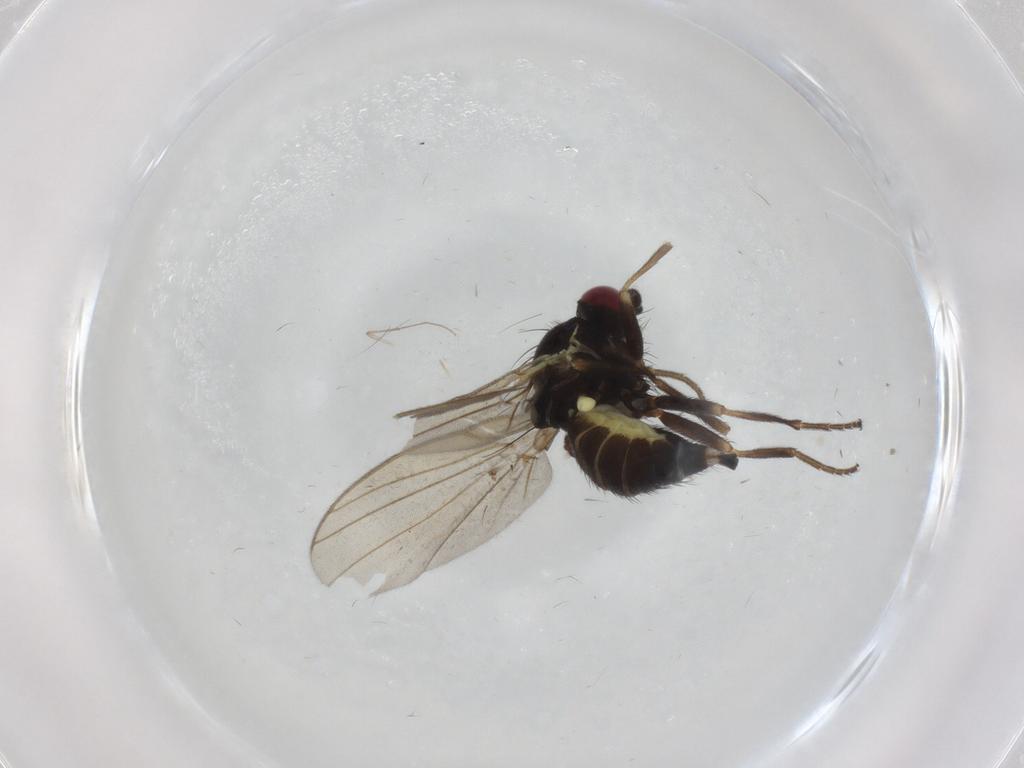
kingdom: Animalia
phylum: Arthropoda
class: Insecta
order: Diptera
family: Agromyzidae
